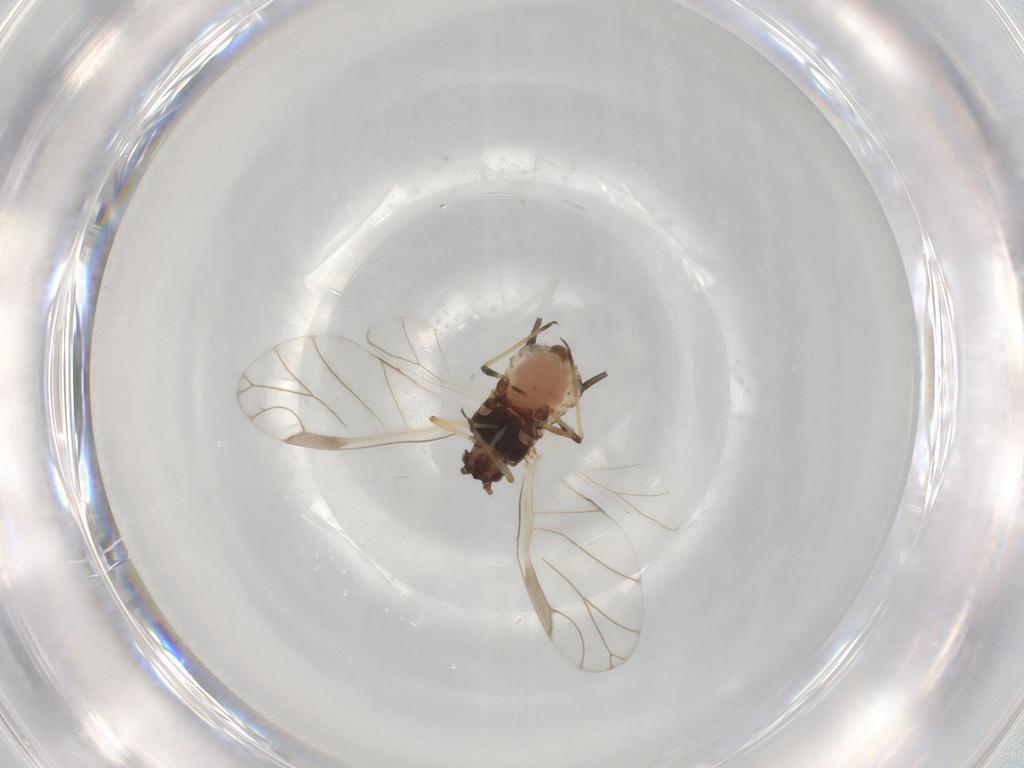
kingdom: Animalia
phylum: Arthropoda
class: Insecta
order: Hemiptera
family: Aphididae
